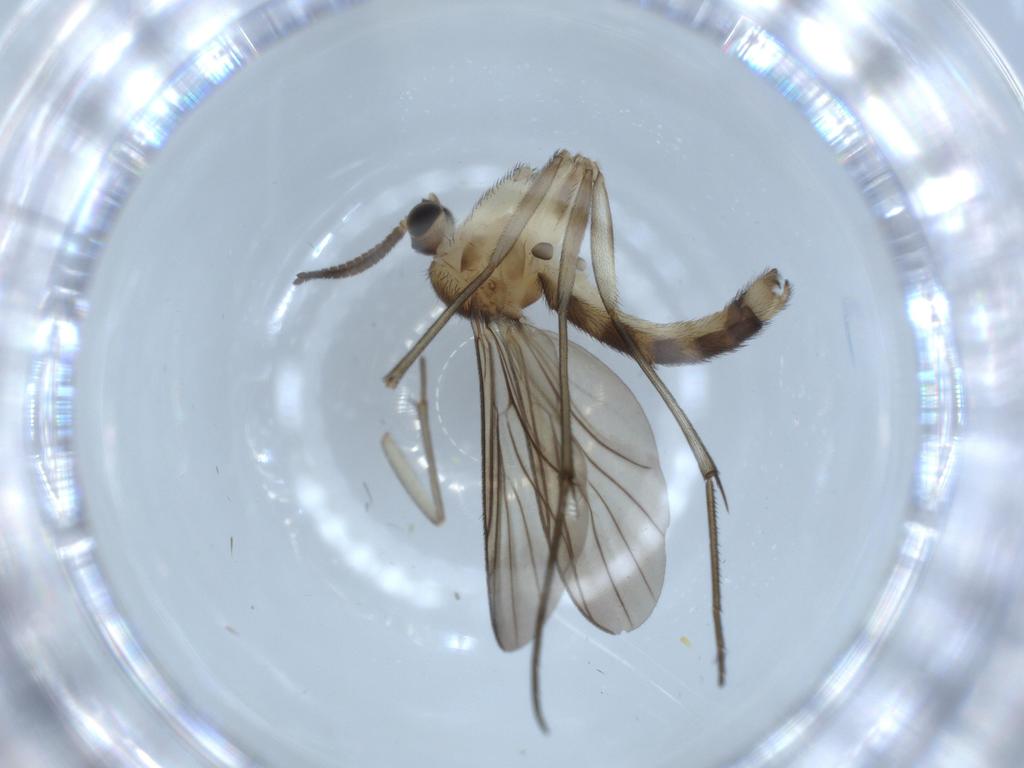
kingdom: Animalia
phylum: Arthropoda
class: Insecta
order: Diptera
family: Mycetophilidae
